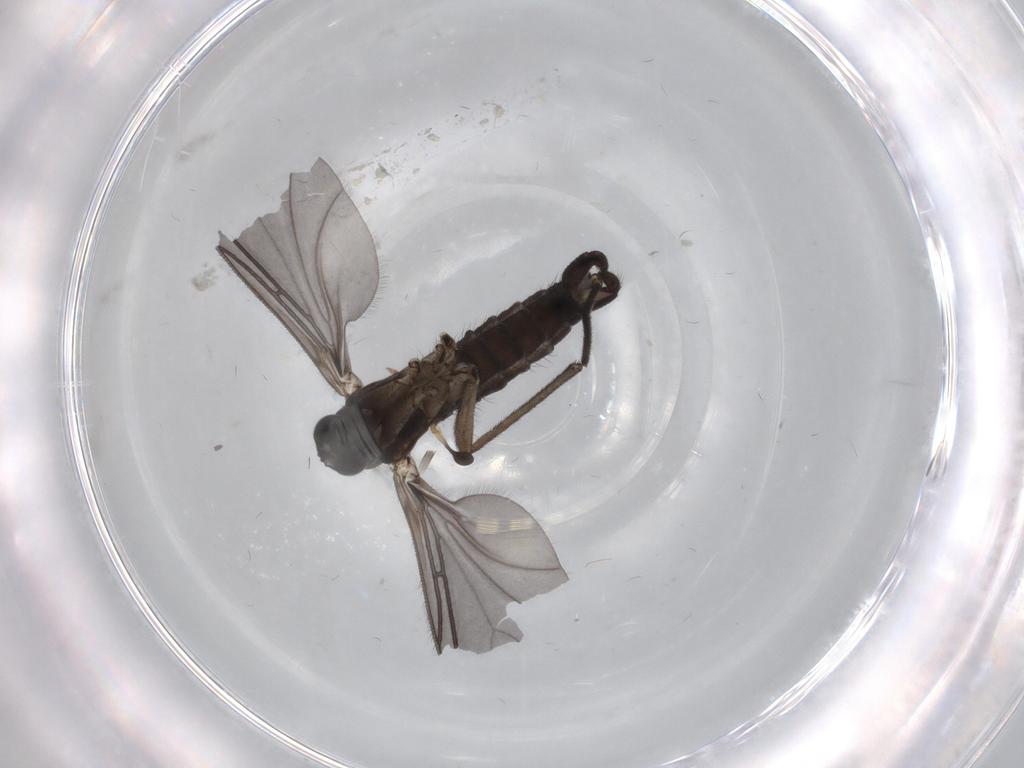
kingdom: Animalia
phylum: Arthropoda
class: Insecta
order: Diptera
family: Sciaridae
